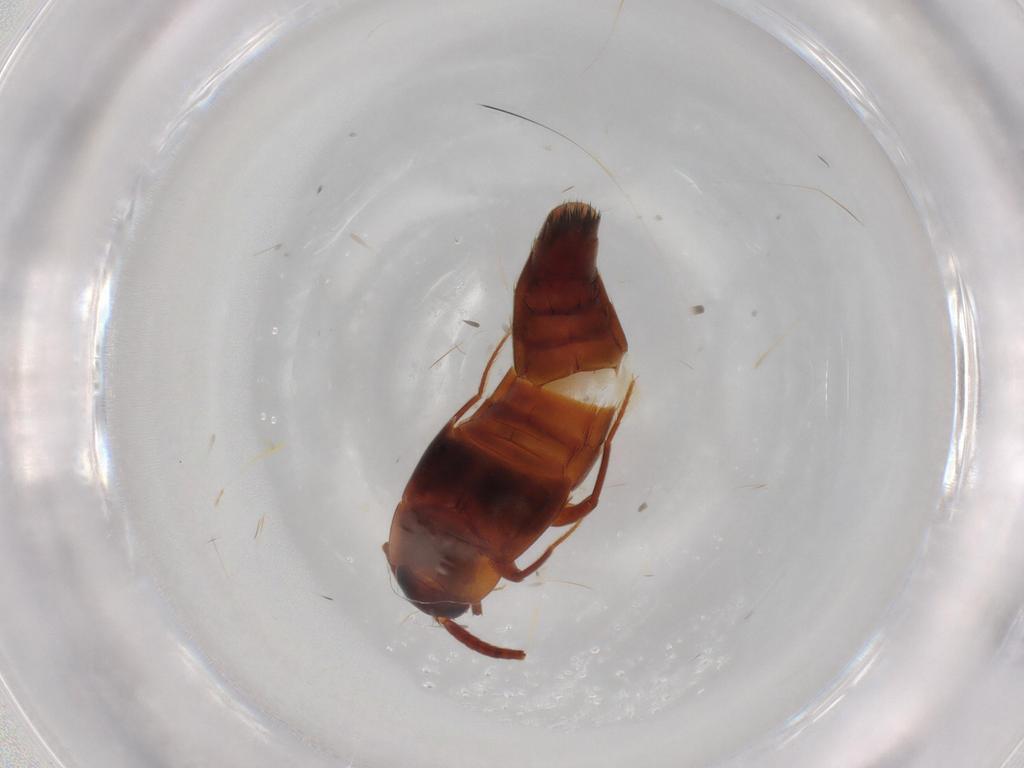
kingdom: Animalia
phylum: Arthropoda
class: Insecta
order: Coleoptera
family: Staphylinidae
